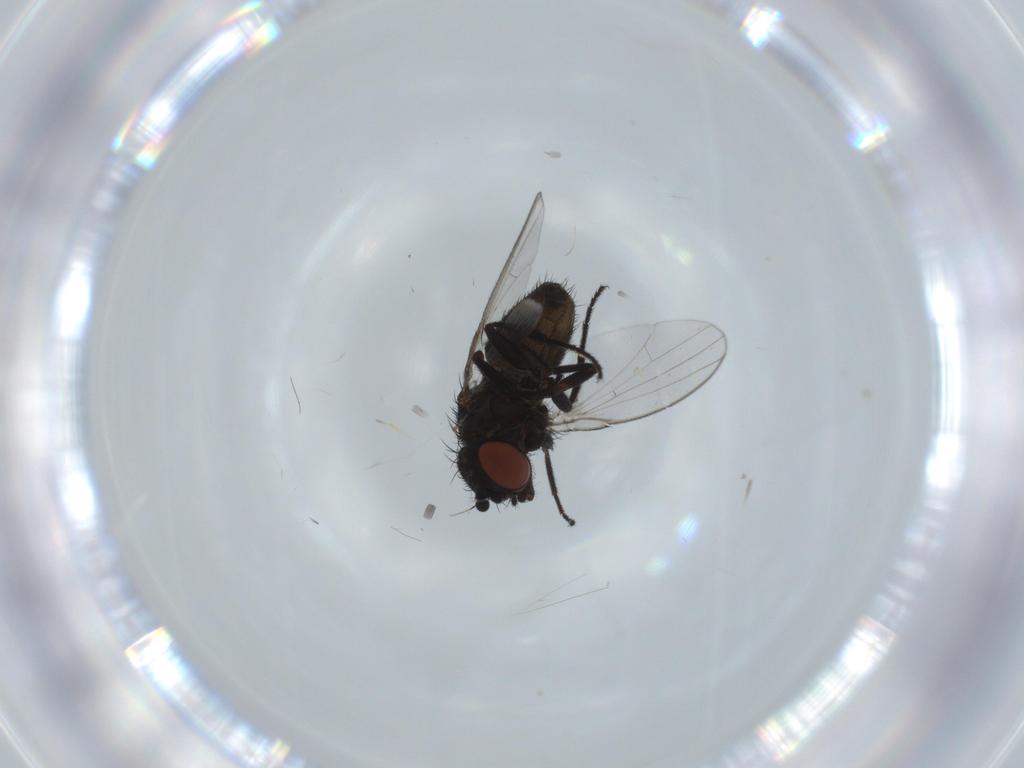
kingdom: Animalia
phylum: Arthropoda
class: Insecta
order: Diptera
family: Milichiidae
